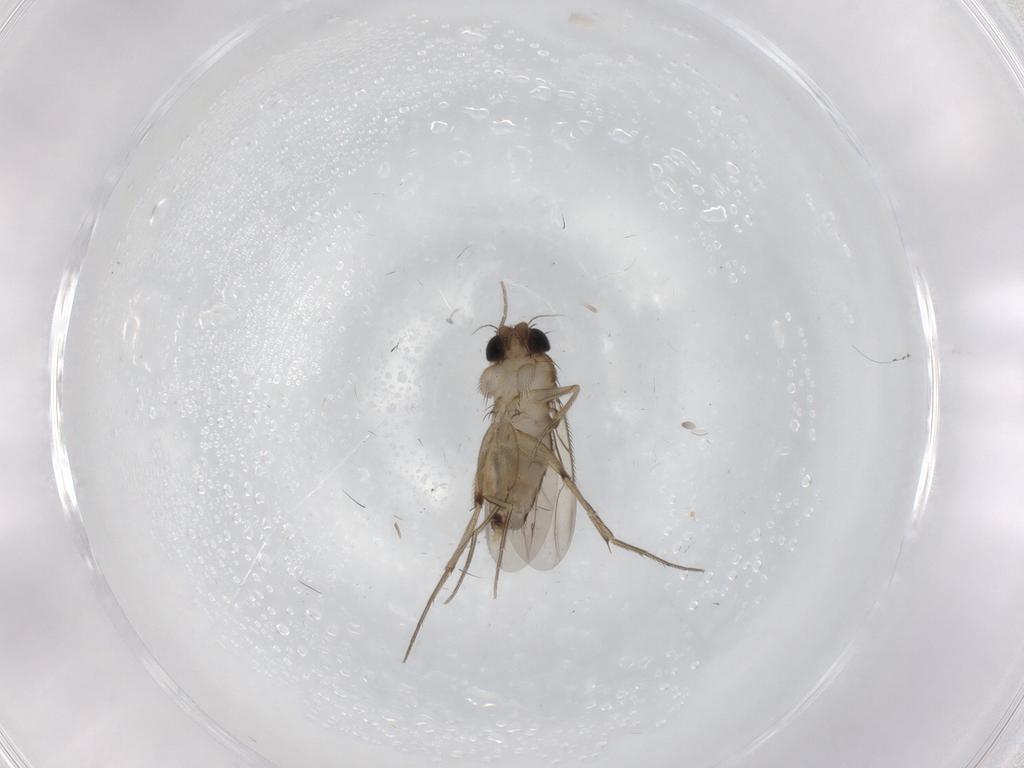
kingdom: Animalia
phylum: Arthropoda
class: Insecta
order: Diptera
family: Phoridae
